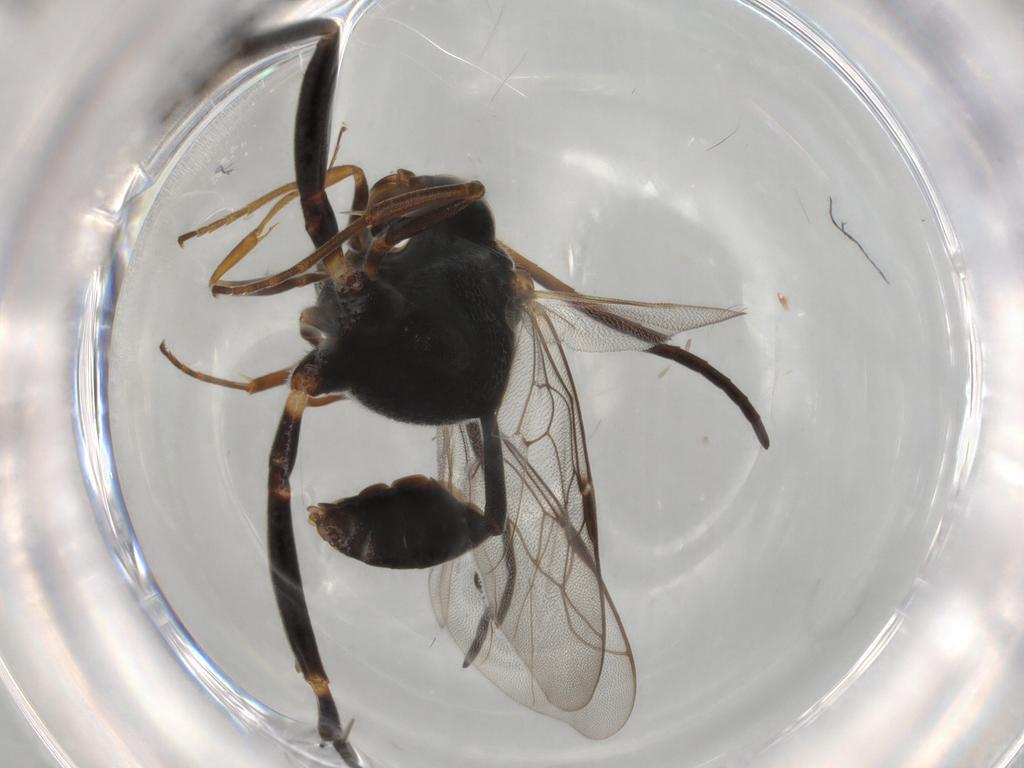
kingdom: Animalia
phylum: Arthropoda
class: Insecta
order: Hymenoptera
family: Evaniidae
